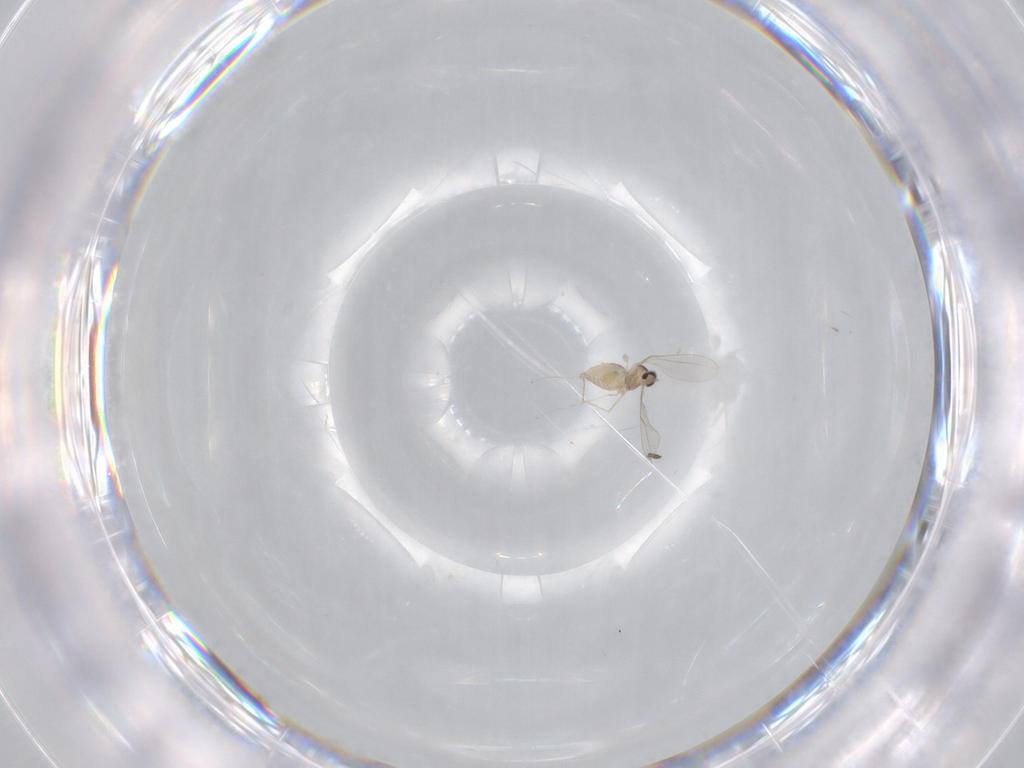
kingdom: Animalia
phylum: Arthropoda
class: Insecta
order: Diptera
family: Cecidomyiidae
